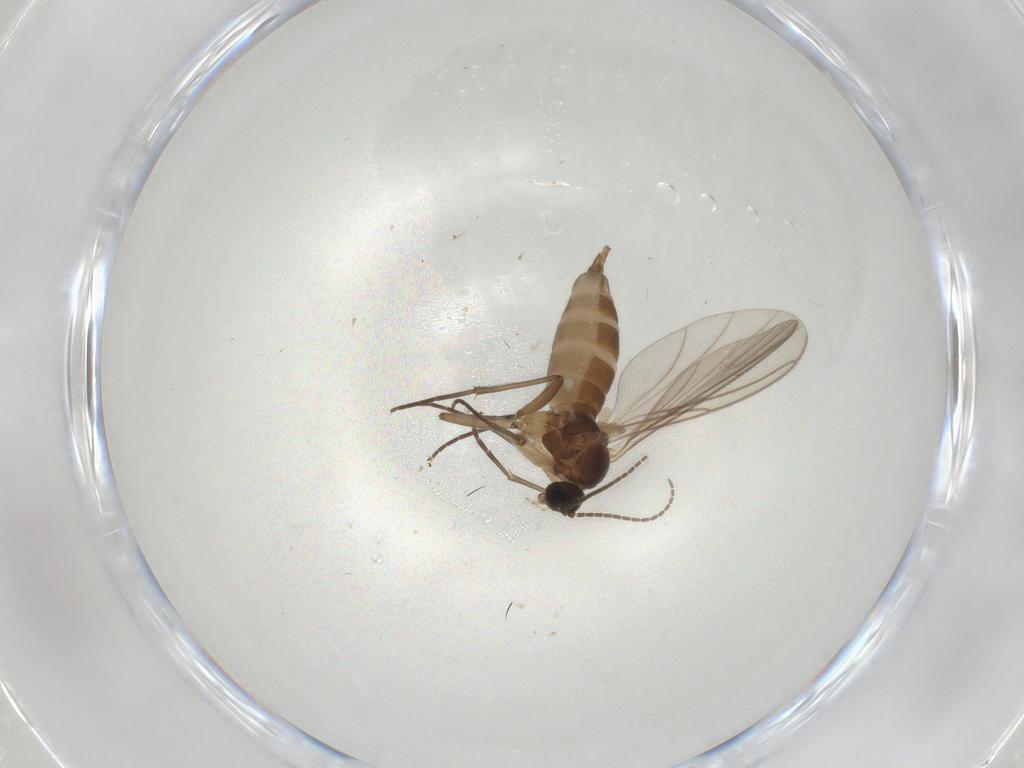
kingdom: Animalia
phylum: Arthropoda
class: Insecta
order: Diptera
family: Sciaridae
